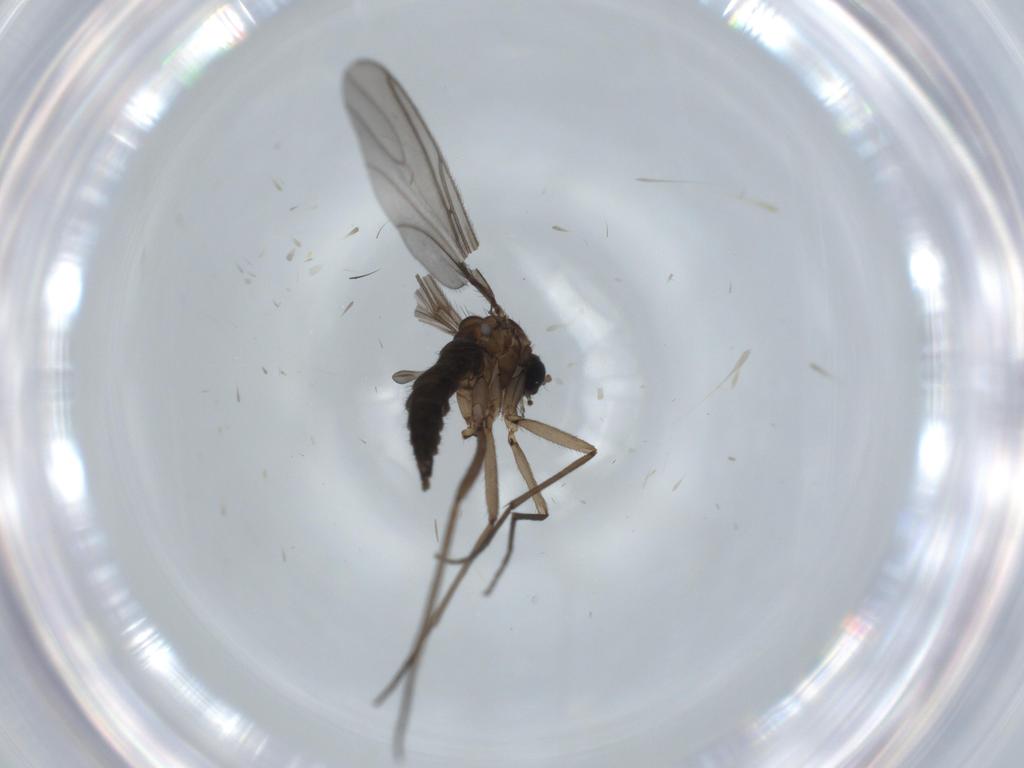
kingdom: Animalia
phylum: Arthropoda
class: Insecta
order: Diptera
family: Sciaridae
